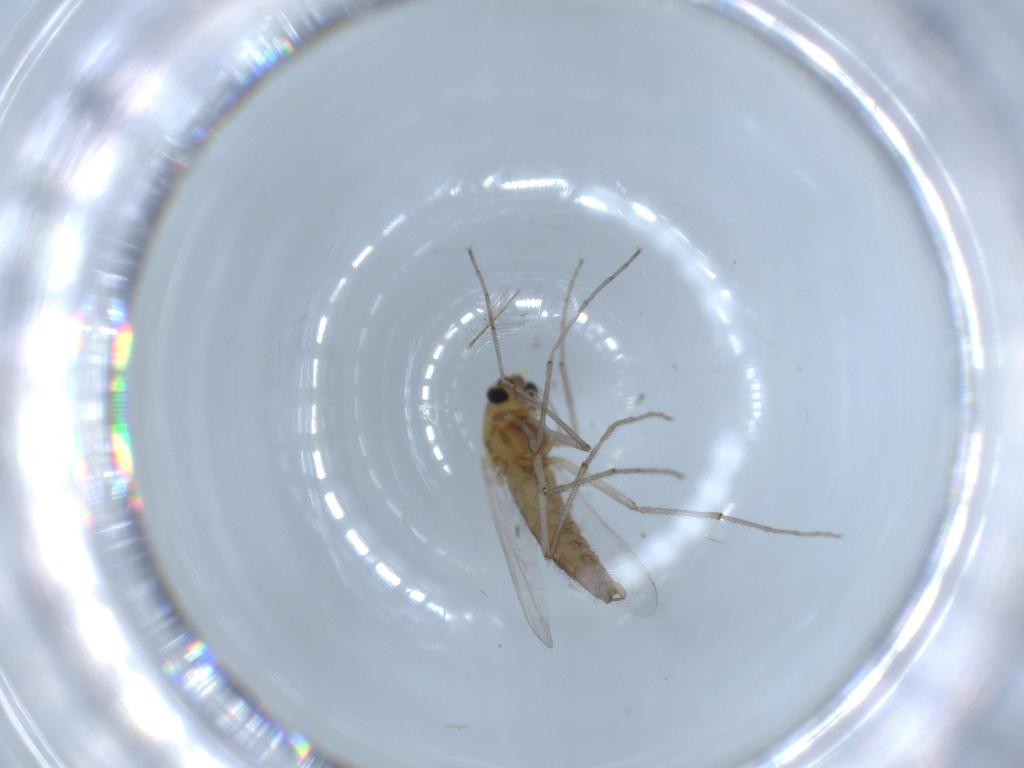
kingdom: Animalia
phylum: Arthropoda
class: Insecta
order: Diptera
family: Chironomidae
